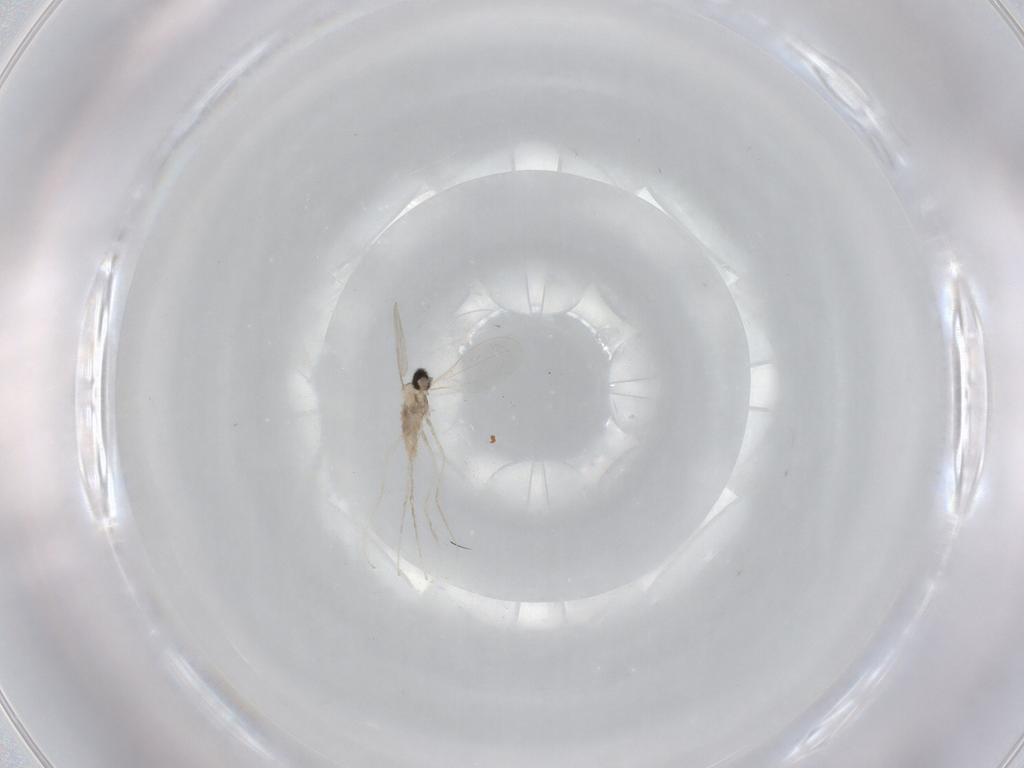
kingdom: Animalia
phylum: Arthropoda
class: Insecta
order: Diptera
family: Cecidomyiidae
